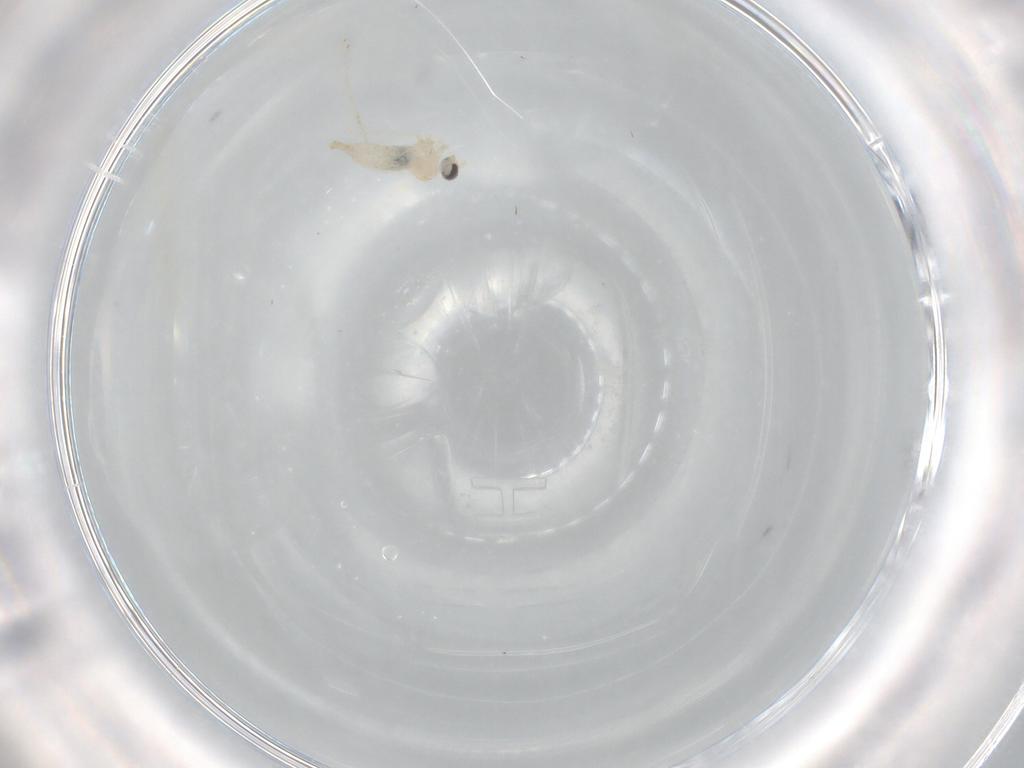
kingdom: Animalia
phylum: Arthropoda
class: Insecta
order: Diptera
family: Cecidomyiidae
